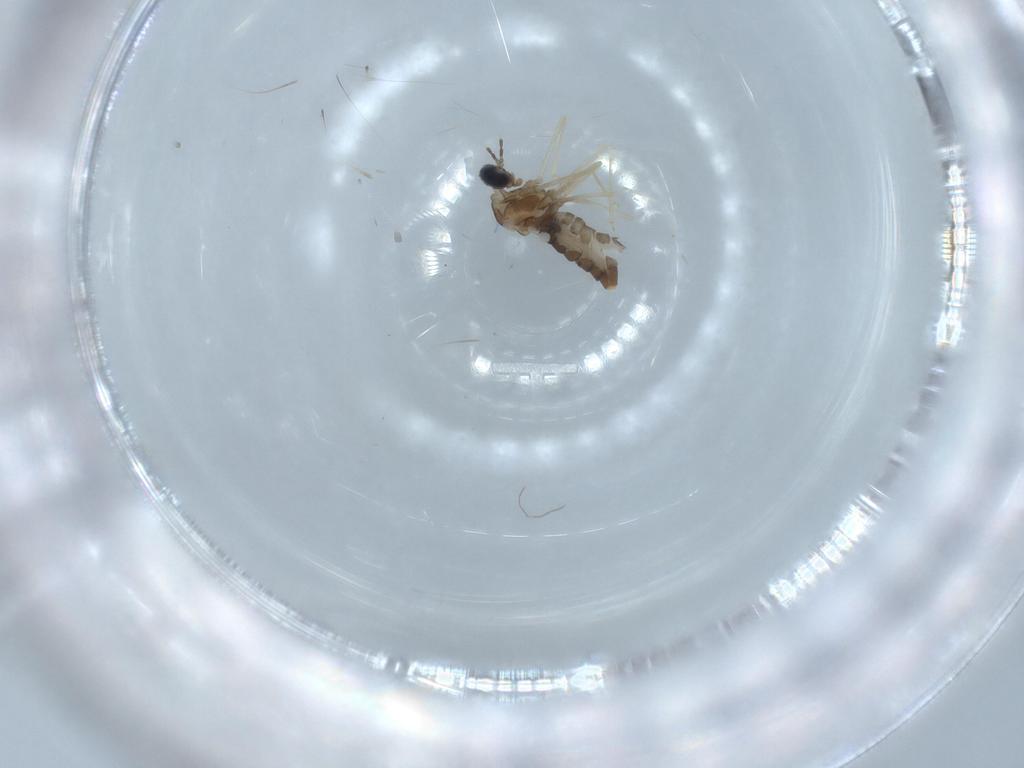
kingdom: Animalia
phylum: Arthropoda
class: Insecta
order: Diptera
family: Cecidomyiidae
